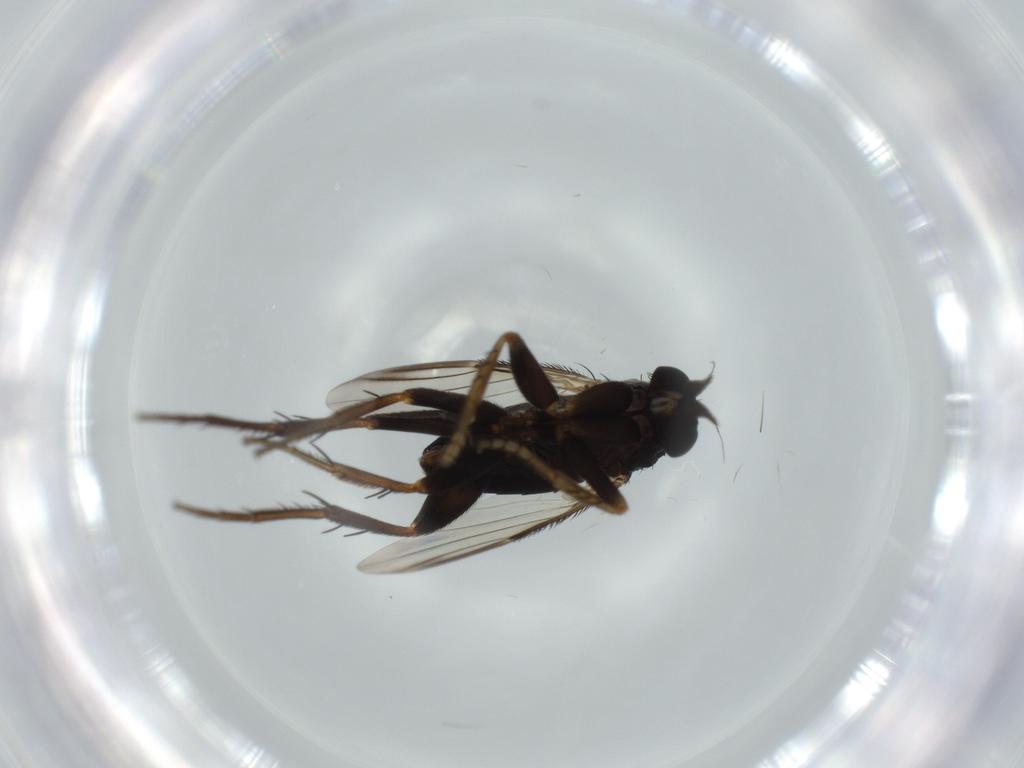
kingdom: Animalia
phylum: Arthropoda
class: Insecta
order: Diptera
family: Phoridae
